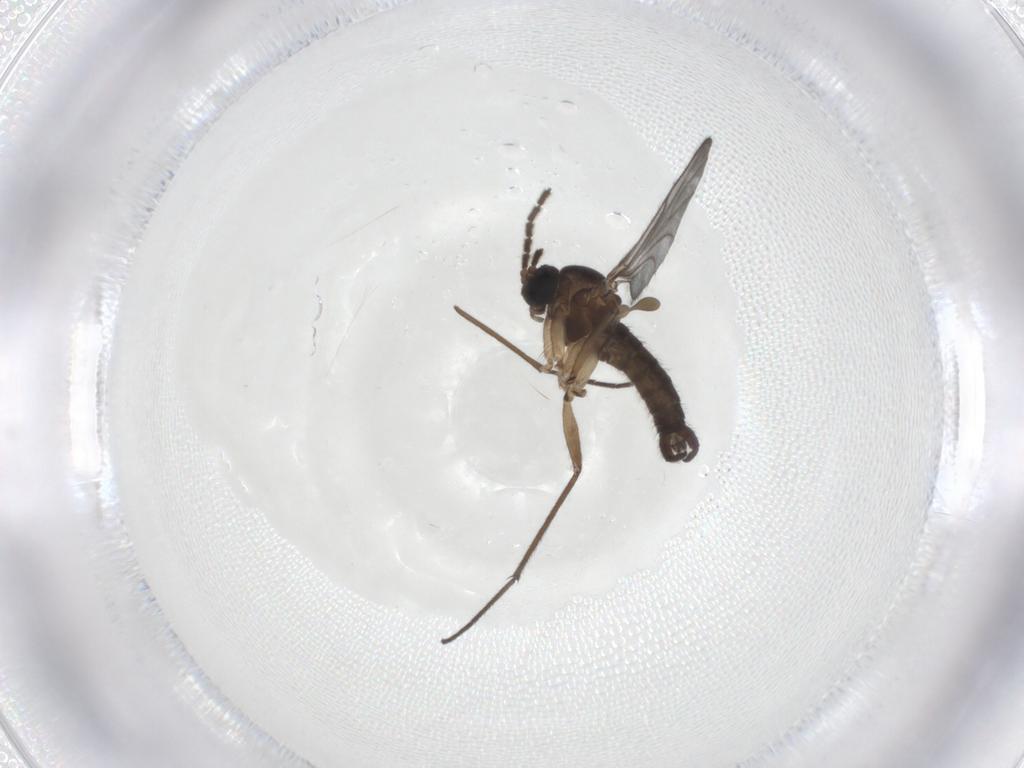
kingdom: Animalia
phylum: Arthropoda
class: Insecta
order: Diptera
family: Sciaridae
